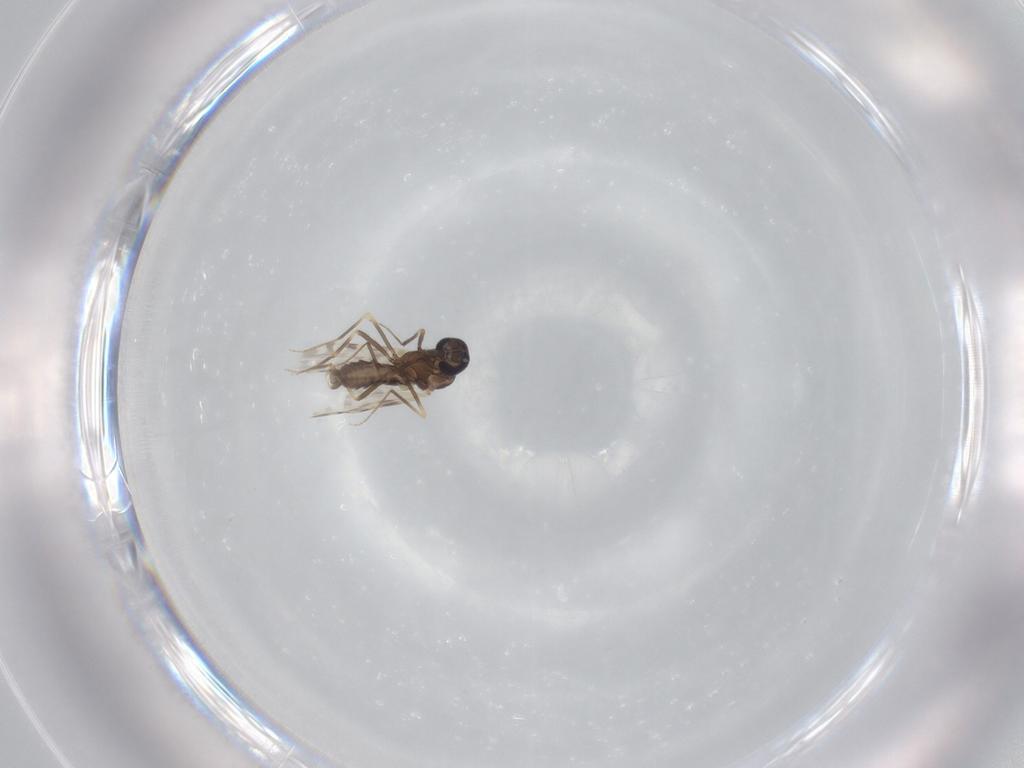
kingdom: Animalia
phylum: Arthropoda
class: Insecta
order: Diptera
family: Ceratopogonidae
